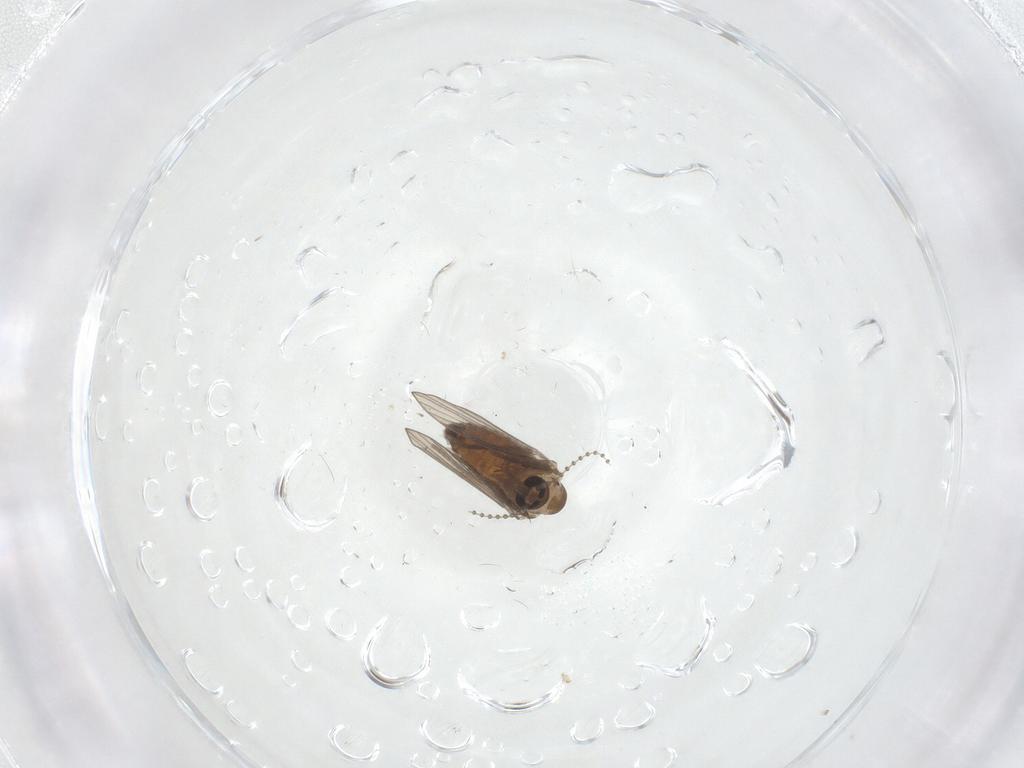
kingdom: Animalia
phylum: Arthropoda
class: Insecta
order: Diptera
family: Psychodidae
